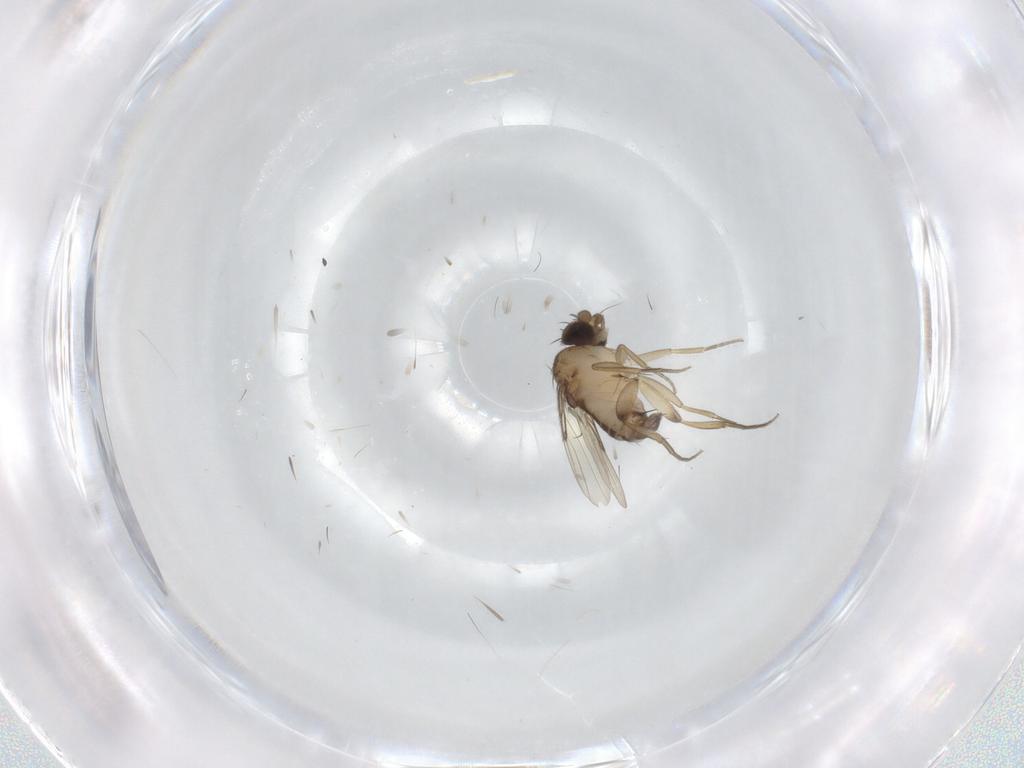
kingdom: Animalia
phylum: Arthropoda
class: Insecta
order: Diptera
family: Phoridae
